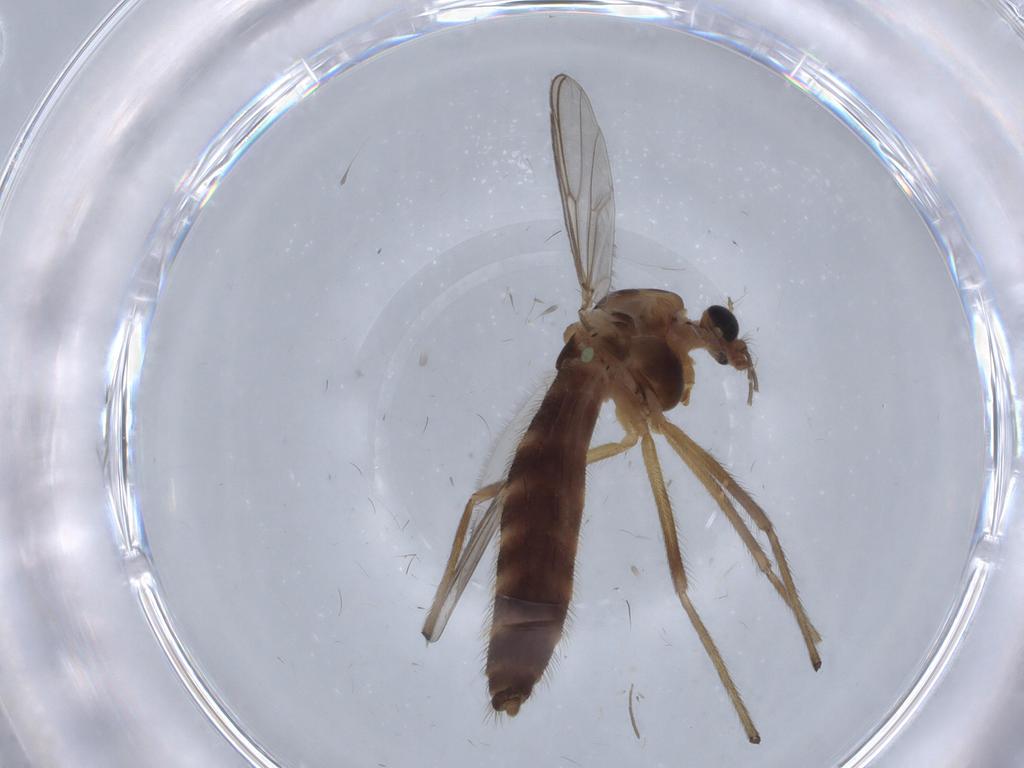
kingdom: Animalia
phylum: Arthropoda
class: Insecta
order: Diptera
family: Chironomidae
